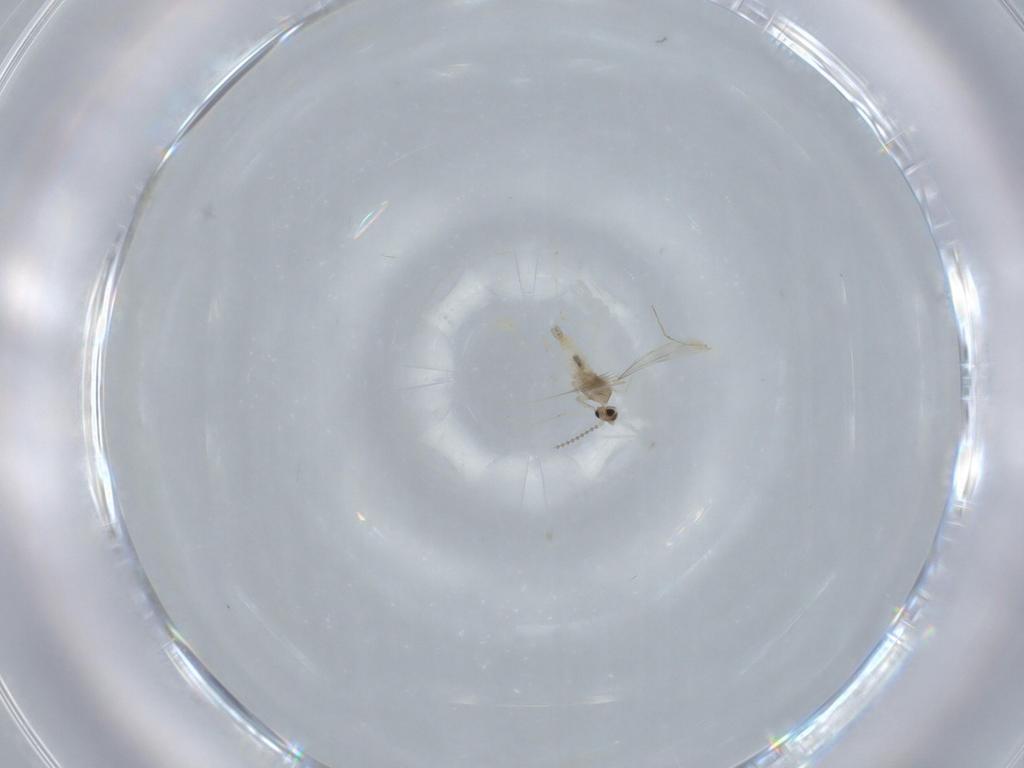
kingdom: Animalia
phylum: Arthropoda
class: Insecta
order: Diptera
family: Cecidomyiidae
